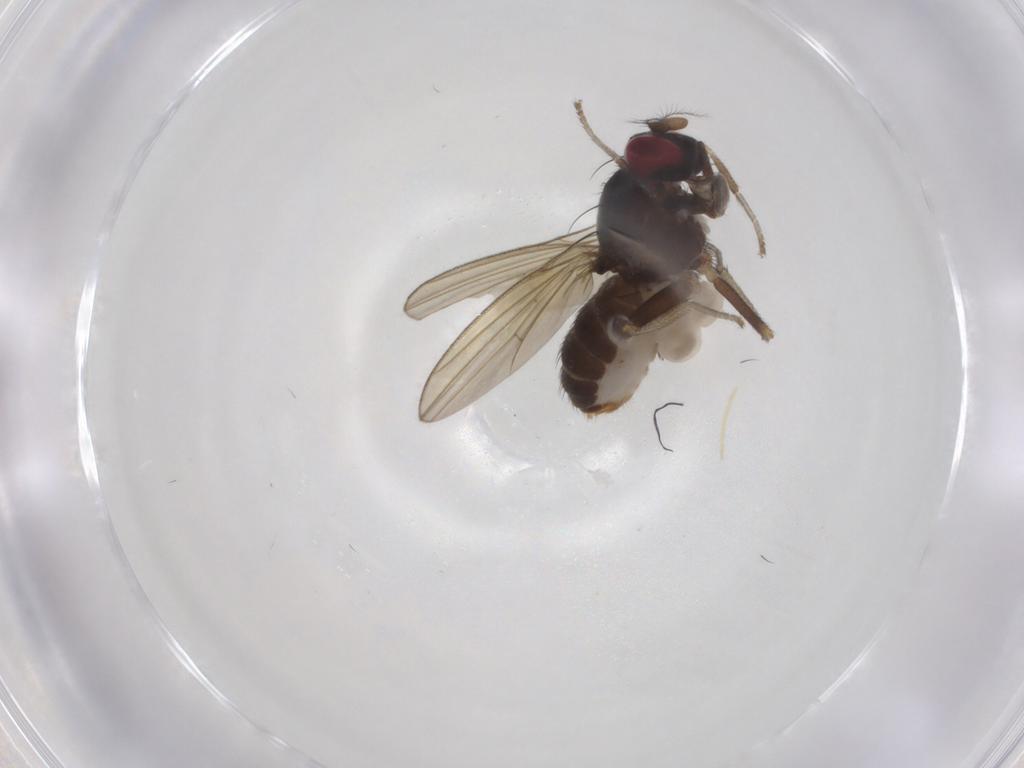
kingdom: Animalia
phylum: Arthropoda
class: Insecta
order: Diptera
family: Lauxaniidae
